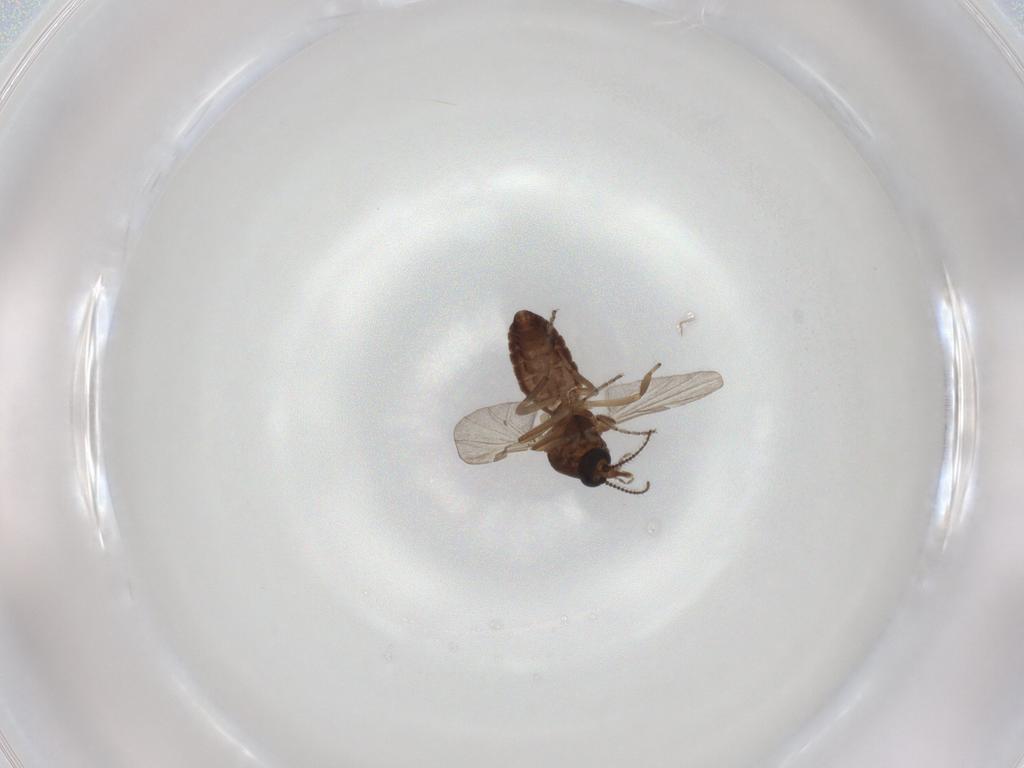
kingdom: Animalia
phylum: Arthropoda
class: Insecta
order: Diptera
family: Ceratopogonidae
